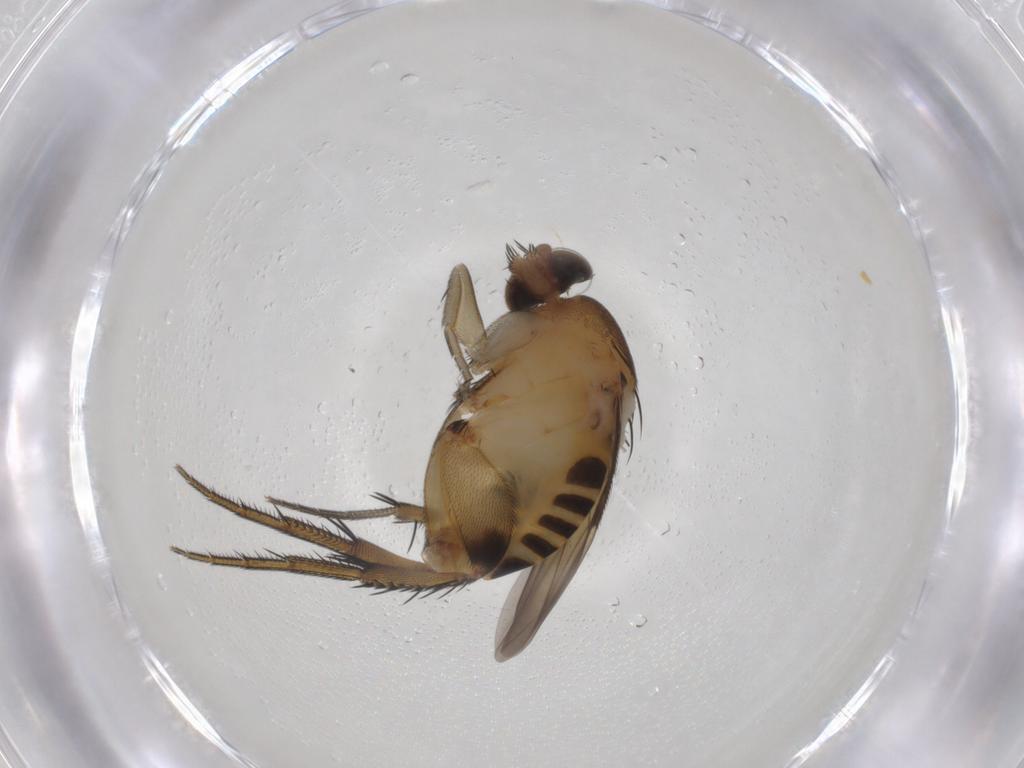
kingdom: Animalia
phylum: Arthropoda
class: Insecta
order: Diptera
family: Phoridae
